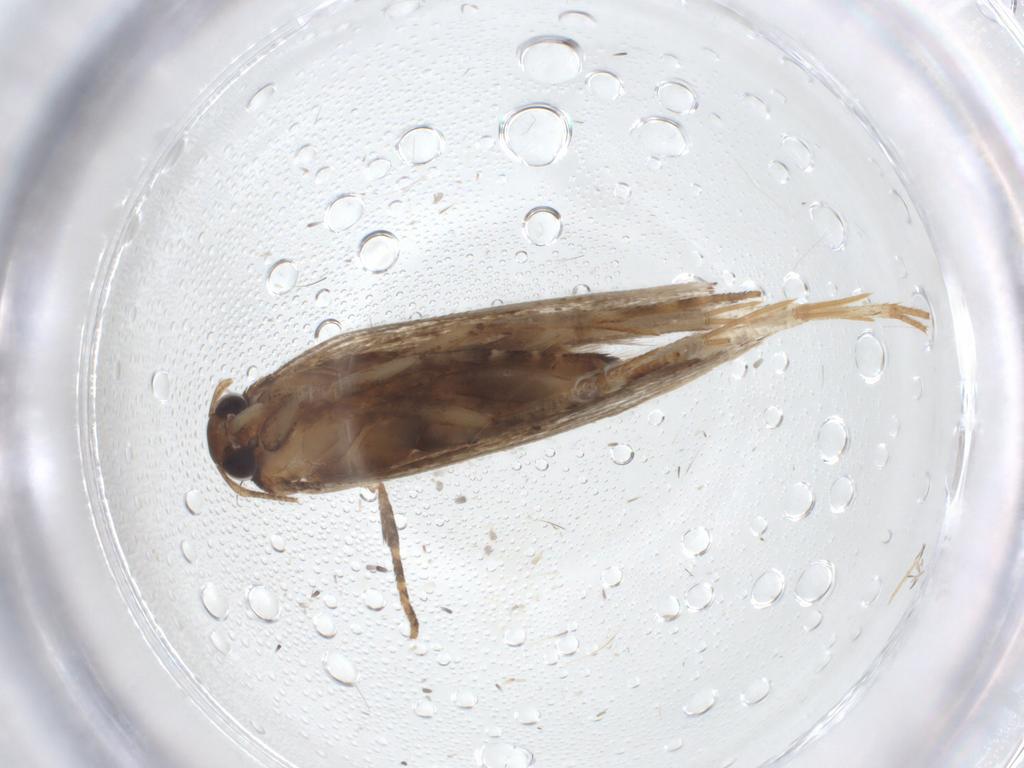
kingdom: Animalia
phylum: Arthropoda
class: Insecta
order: Lepidoptera
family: Gelechiidae
